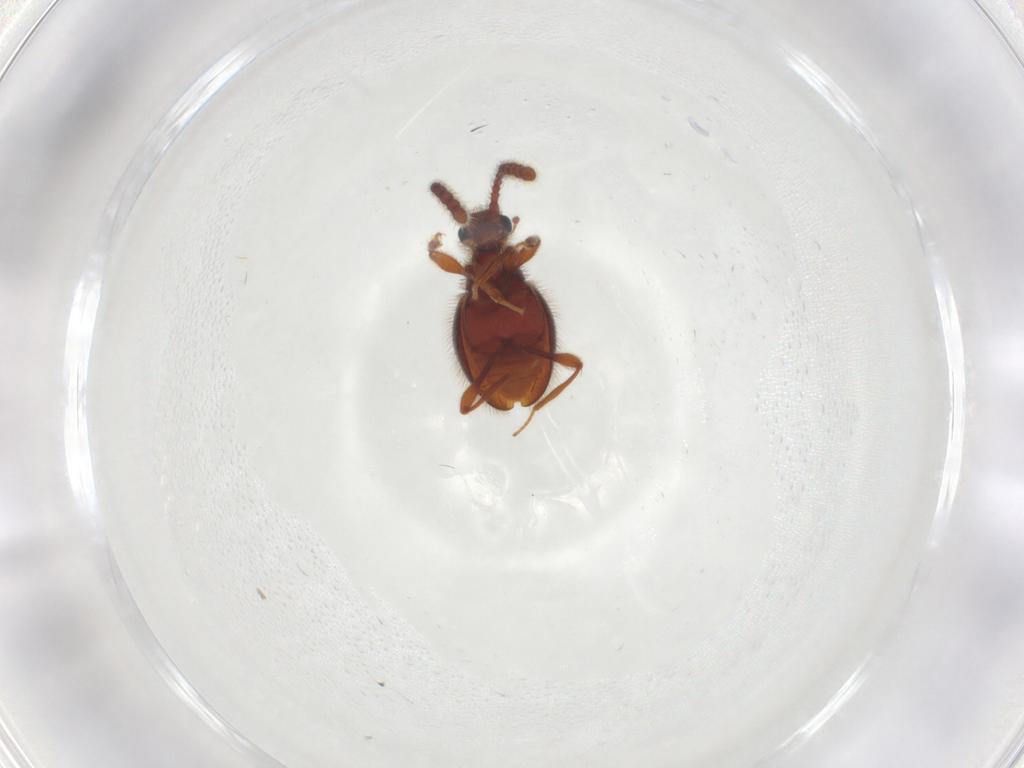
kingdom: Animalia
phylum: Arthropoda
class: Insecta
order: Coleoptera
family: Staphylinidae
